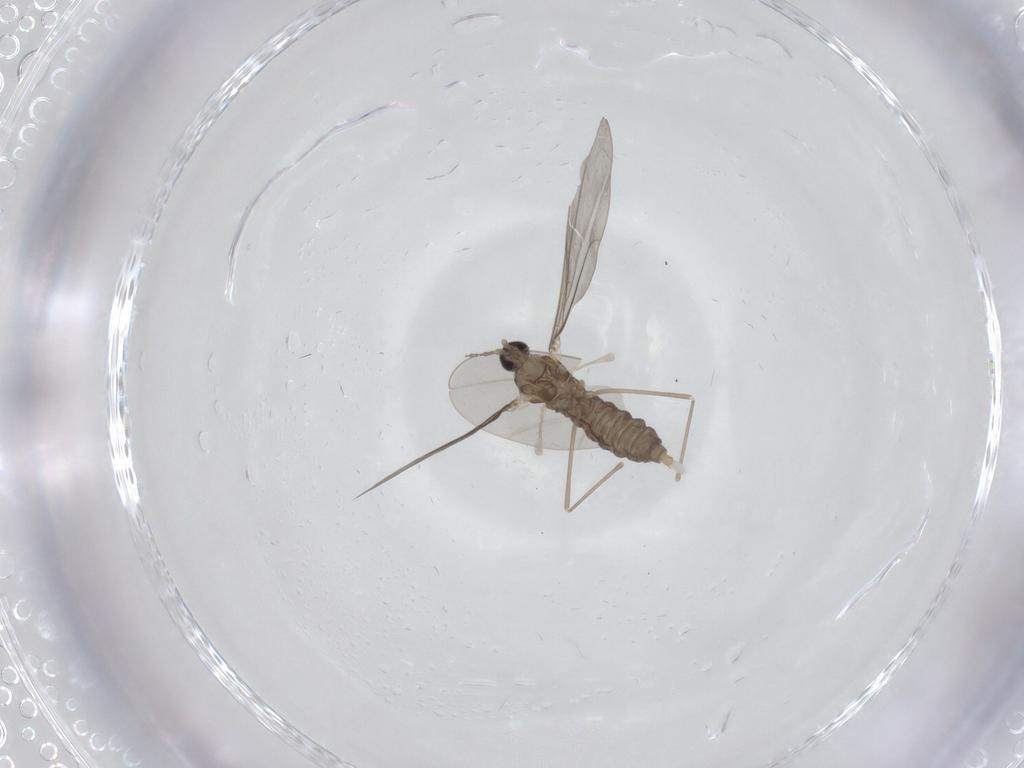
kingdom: Animalia
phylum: Arthropoda
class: Insecta
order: Diptera
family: Cecidomyiidae
